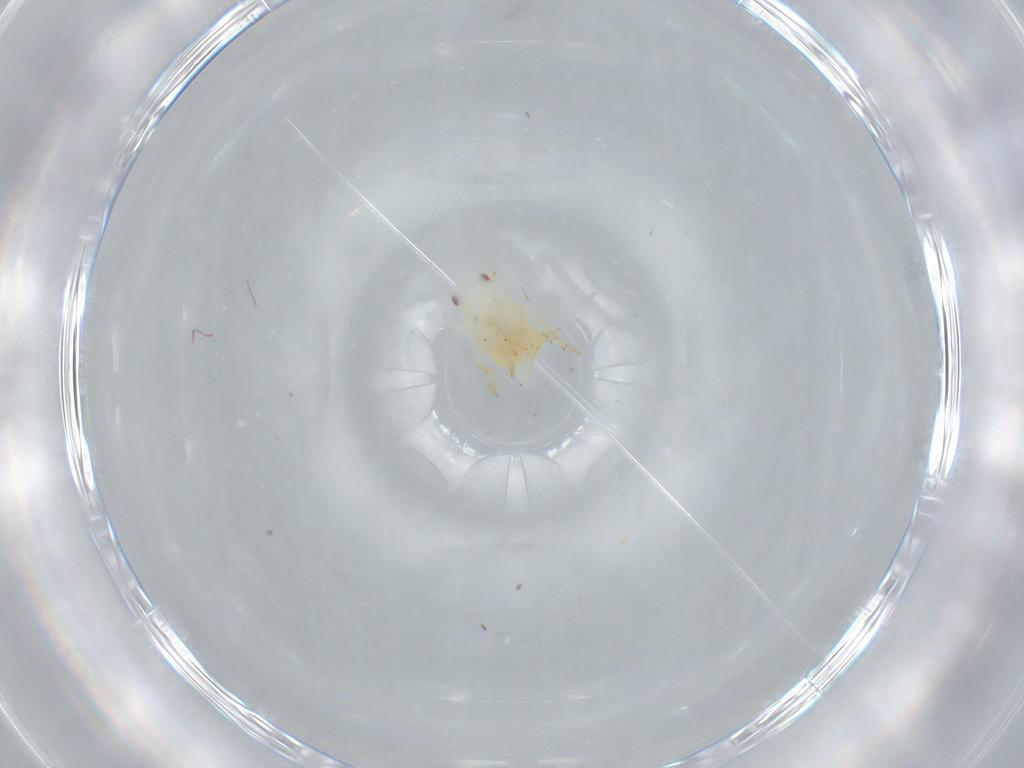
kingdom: Animalia
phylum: Arthropoda
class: Insecta
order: Hemiptera
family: Flatidae
